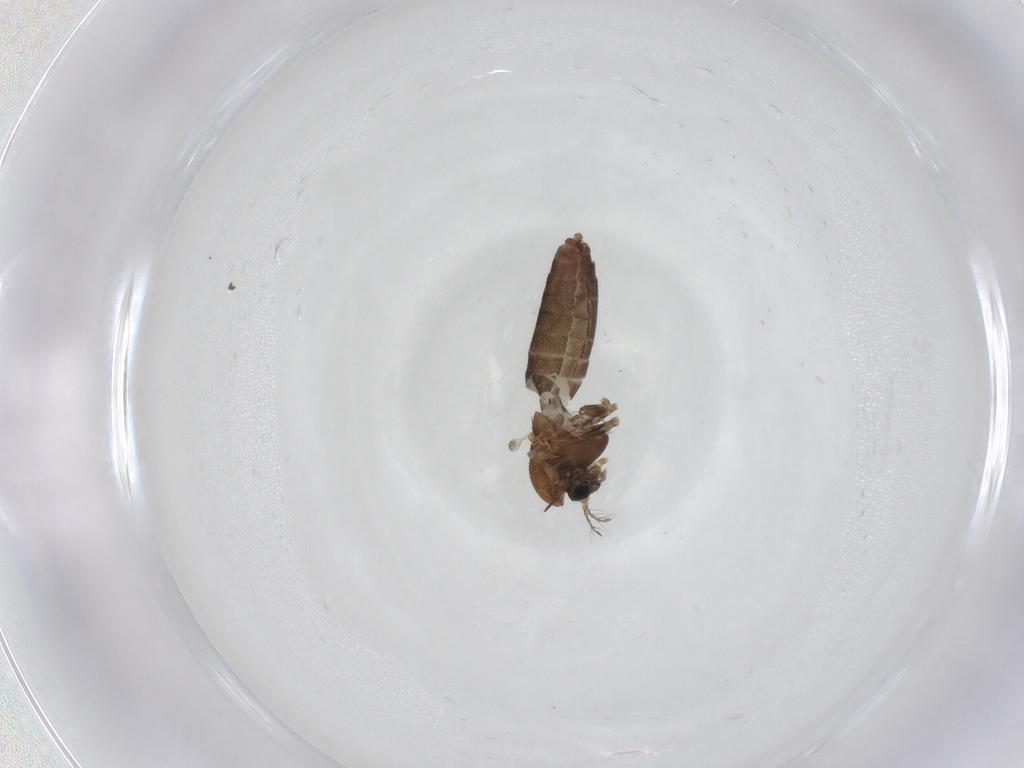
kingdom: Animalia
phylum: Arthropoda
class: Insecta
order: Diptera
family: Chironomidae
